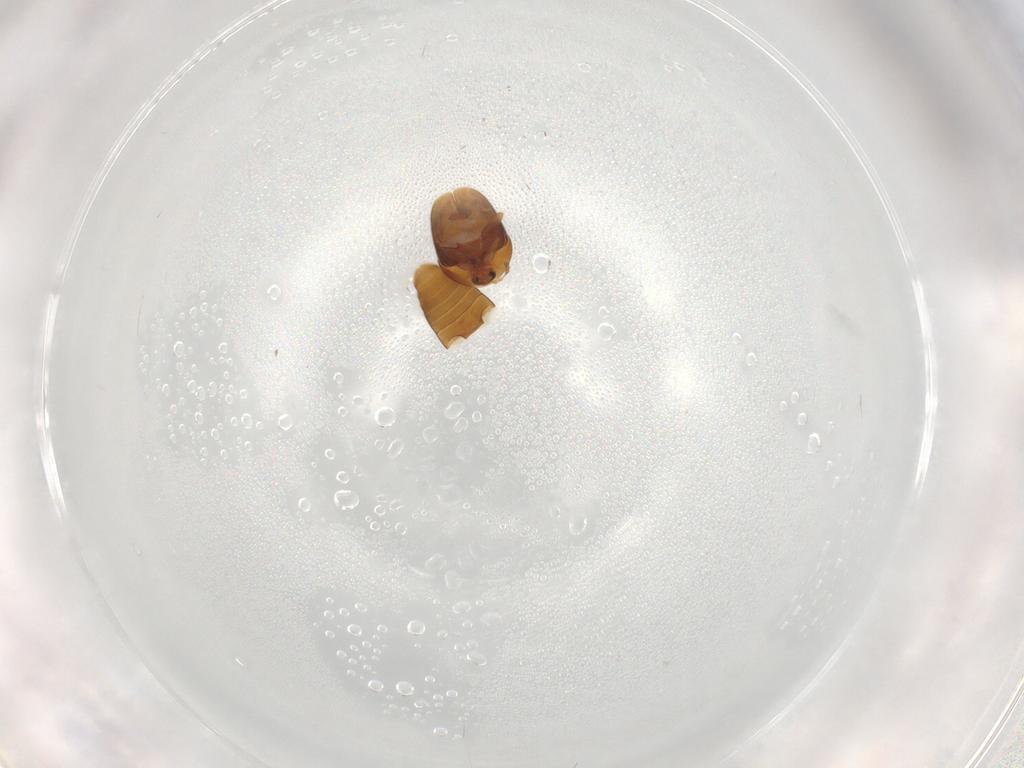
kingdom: Animalia
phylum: Arthropoda
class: Insecta
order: Coleoptera
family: Corylophidae
